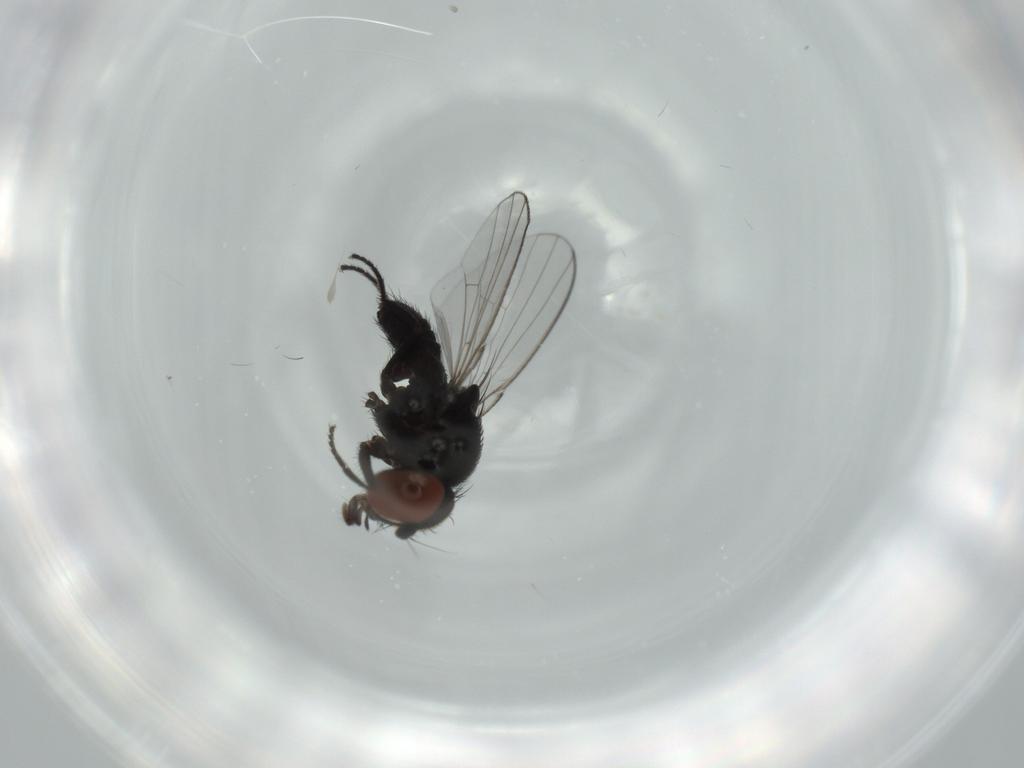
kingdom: Animalia
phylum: Arthropoda
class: Insecta
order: Diptera
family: Milichiidae
